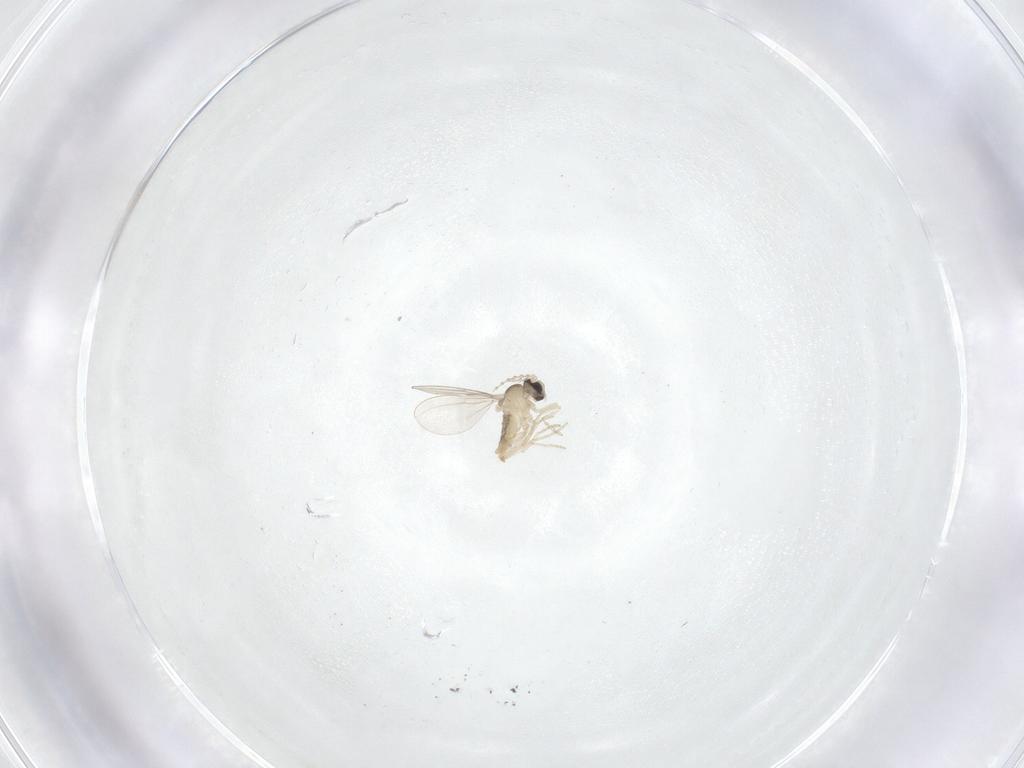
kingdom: Animalia
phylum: Arthropoda
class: Insecta
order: Diptera
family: Cecidomyiidae
